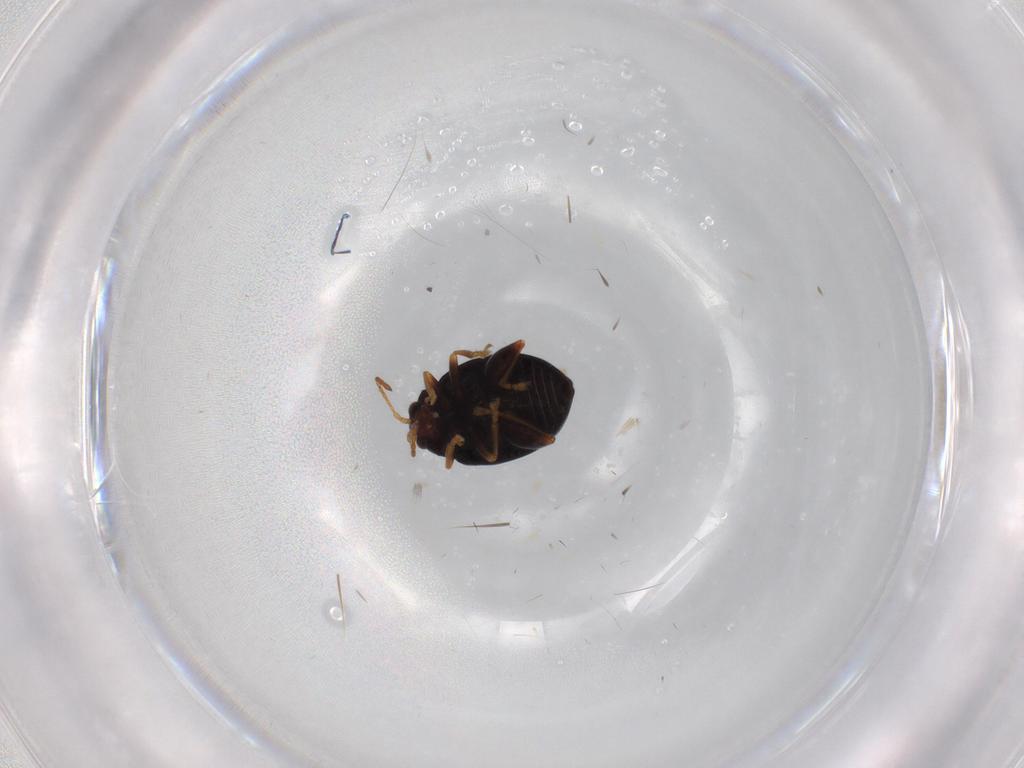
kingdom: Animalia
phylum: Arthropoda
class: Insecta
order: Coleoptera
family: Chrysomelidae
